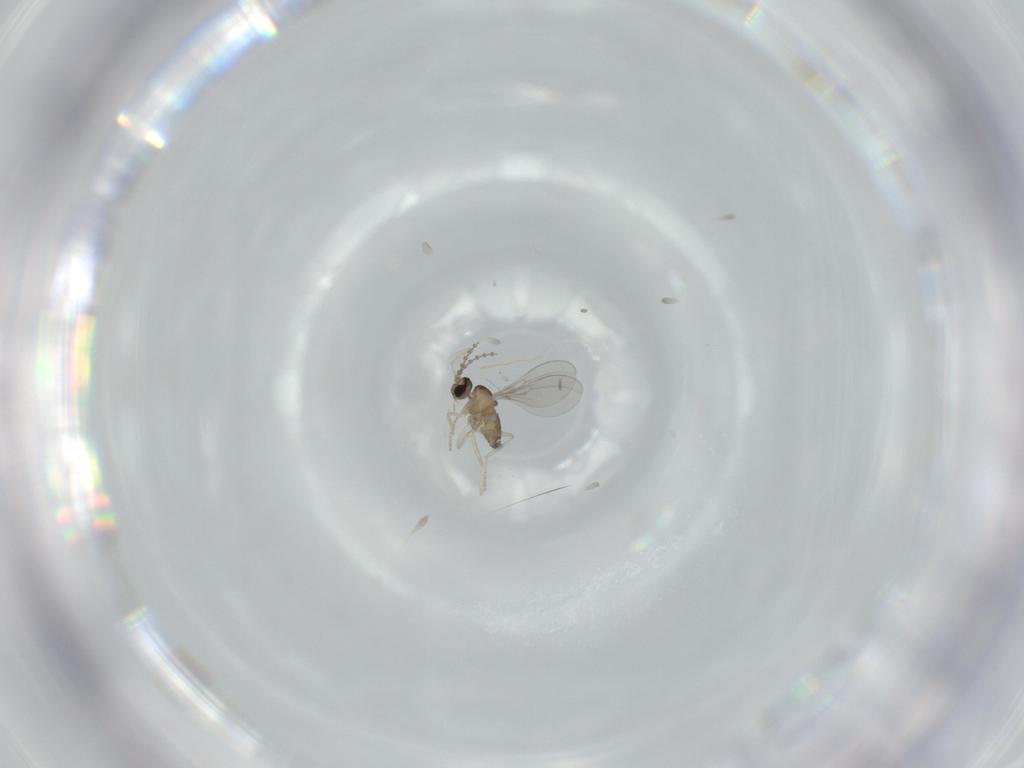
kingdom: Animalia
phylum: Arthropoda
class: Insecta
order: Diptera
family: Cecidomyiidae
